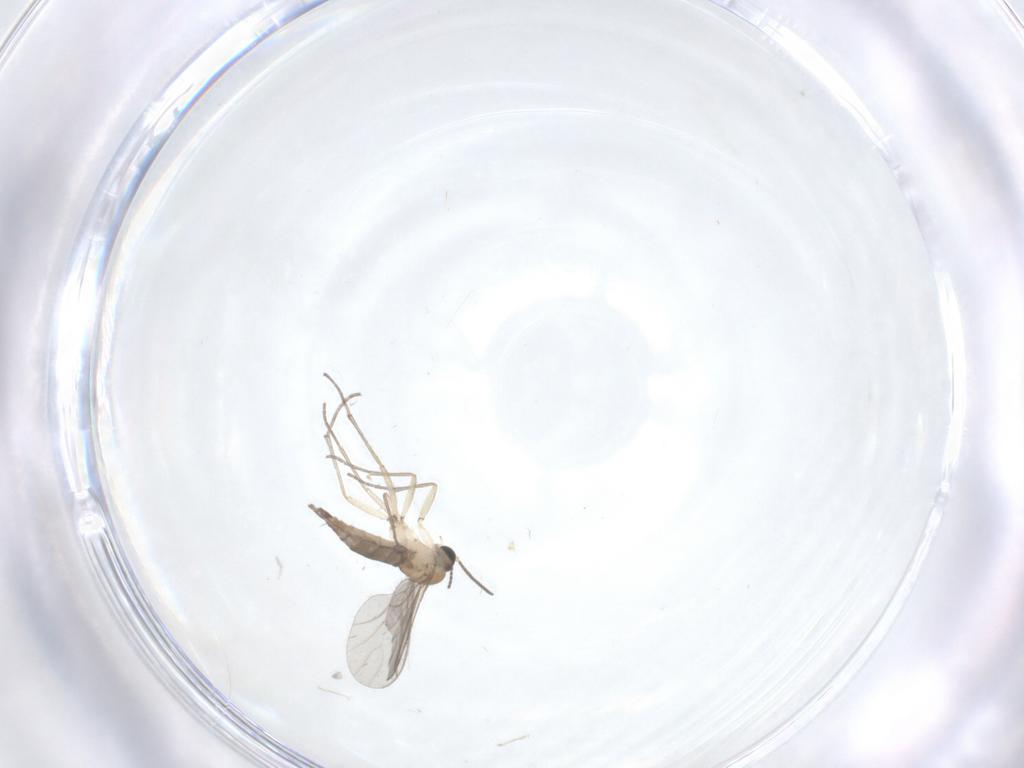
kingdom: Animalia
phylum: Arthropoda
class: Insecta
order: Diptera
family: Sciaridae
